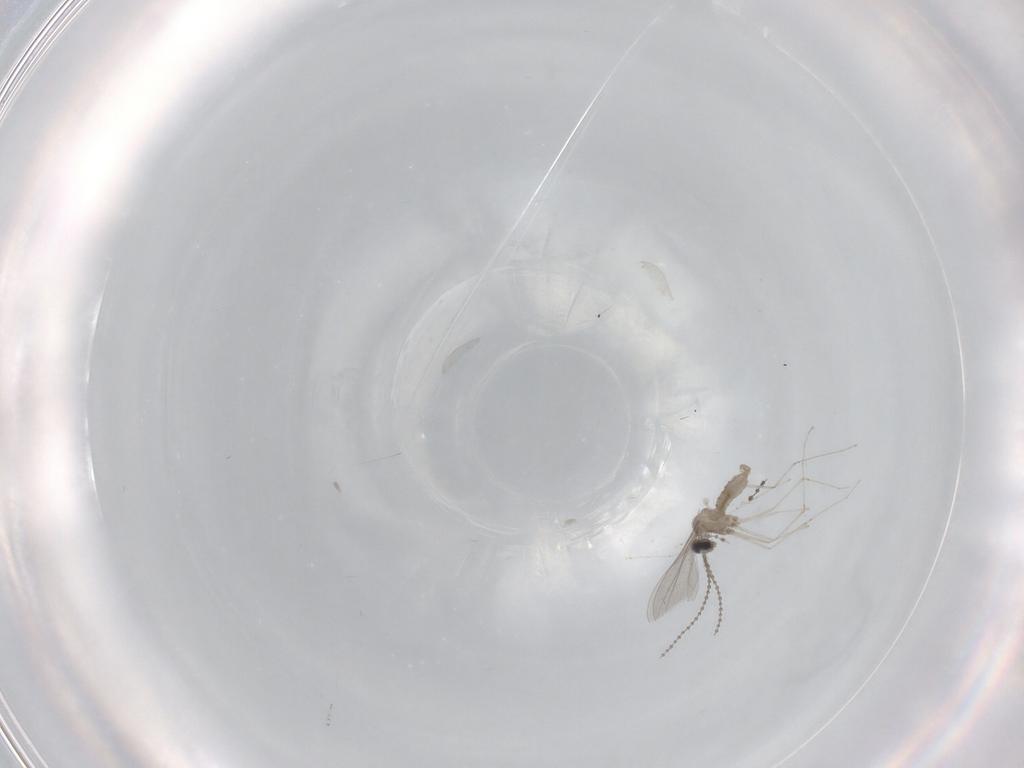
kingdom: Animalia
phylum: Arthropoda
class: Insecta
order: Diptera
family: Cecidomyiidae
